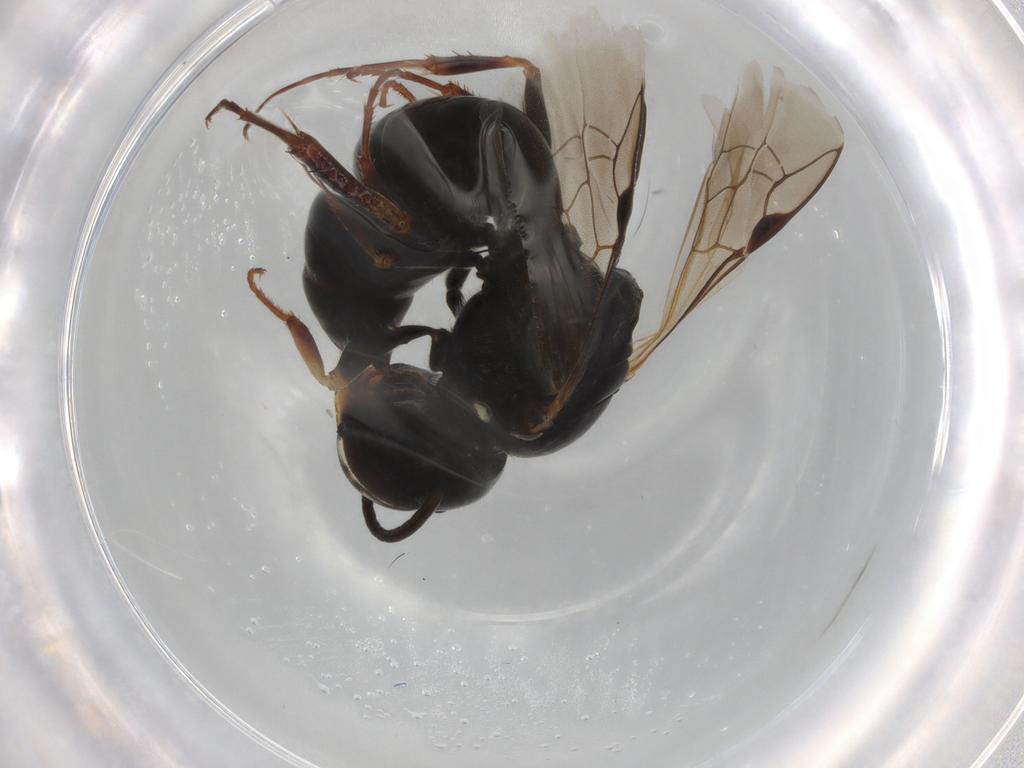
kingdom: Animalia
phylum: Arthropoda
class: Insecta
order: Hymenoptera
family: Crabronidae
